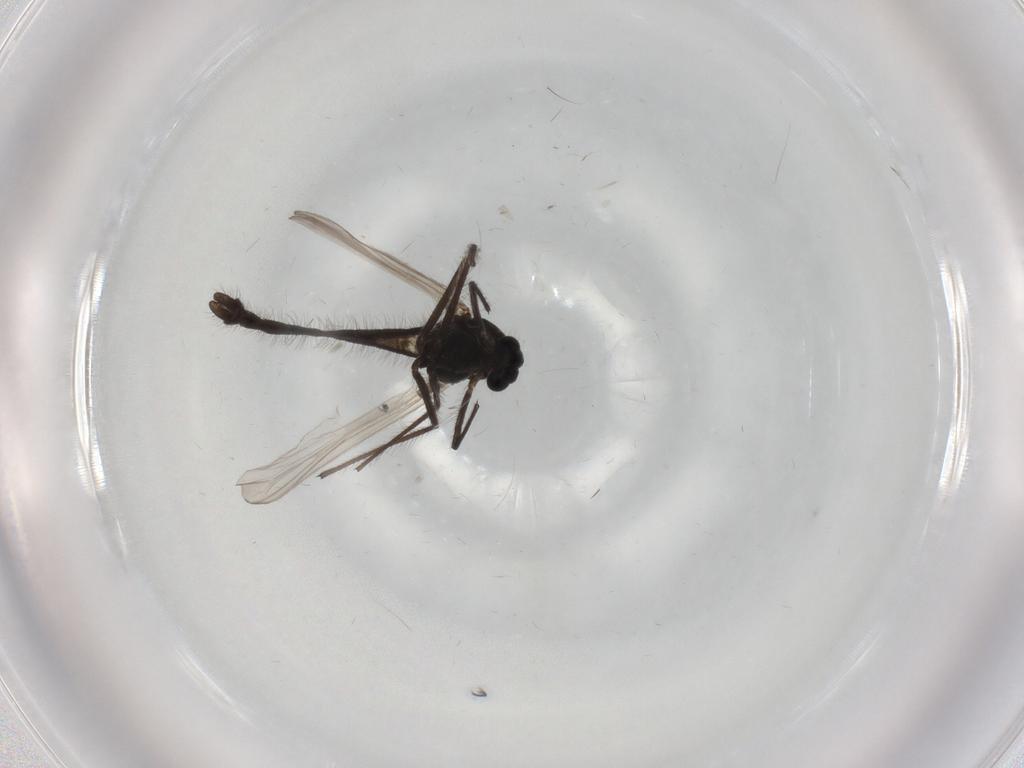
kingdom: Animalia
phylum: Arthropoda
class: Insecta
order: Diptera
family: Chironomidae
